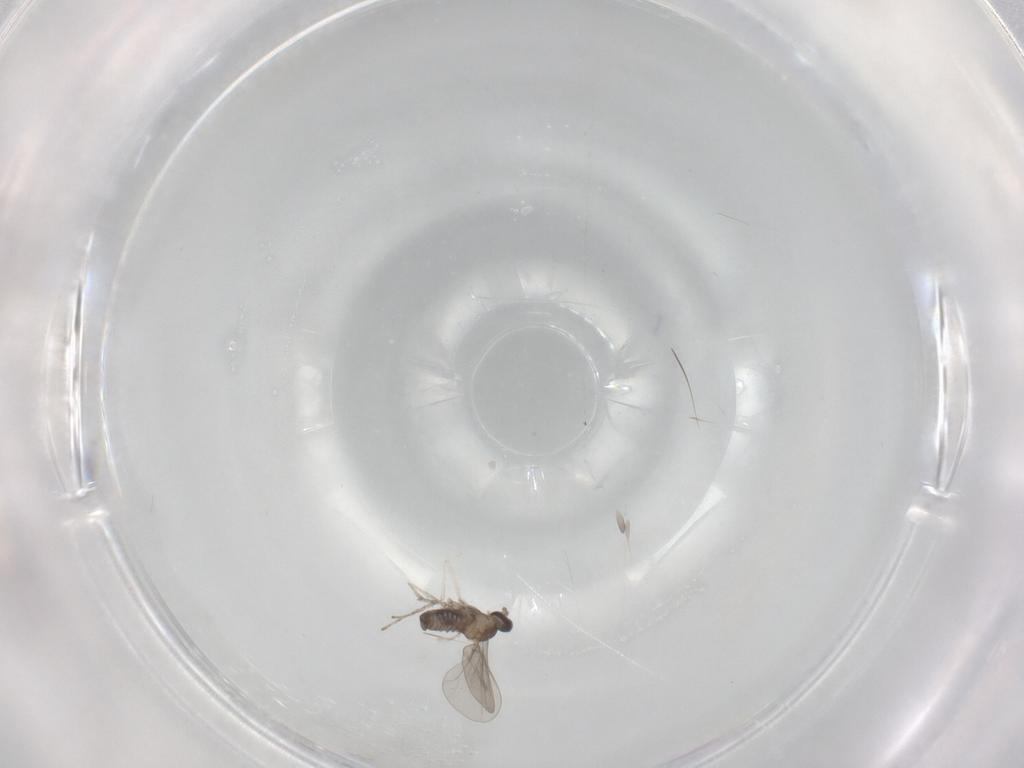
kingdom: Animalia
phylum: Arthropoda
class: Insecta
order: Diptera
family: Cecidomyiidae
